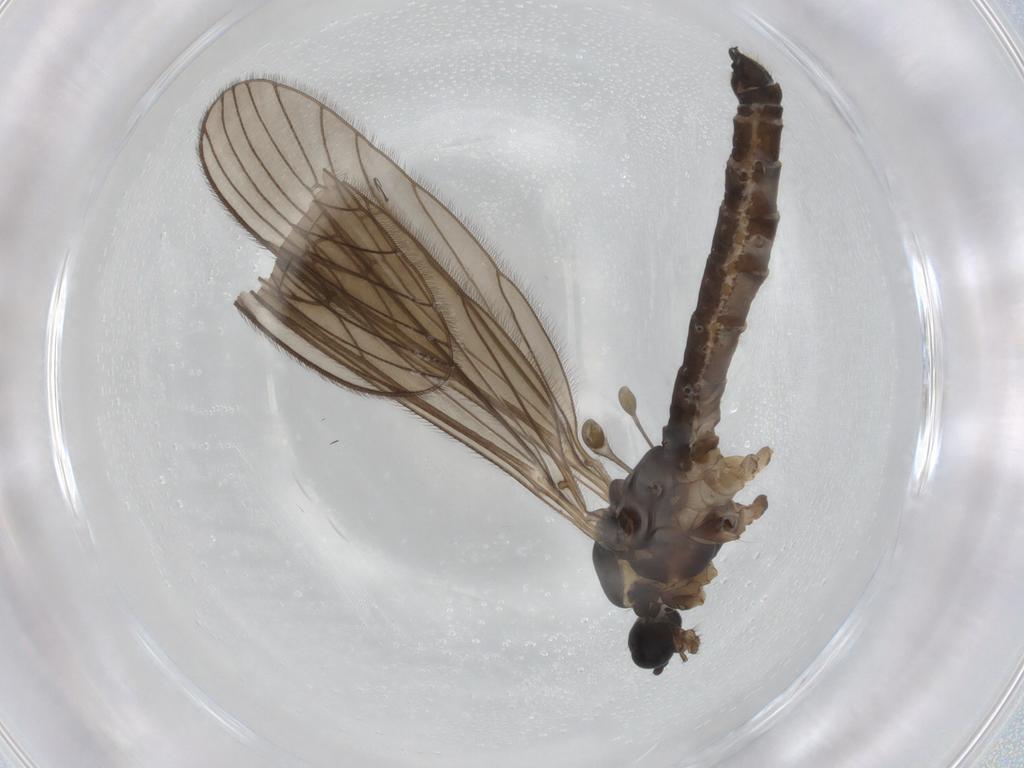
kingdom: Animalia
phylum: Arthropoda
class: Insecta
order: Diptera
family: Limoniidae
